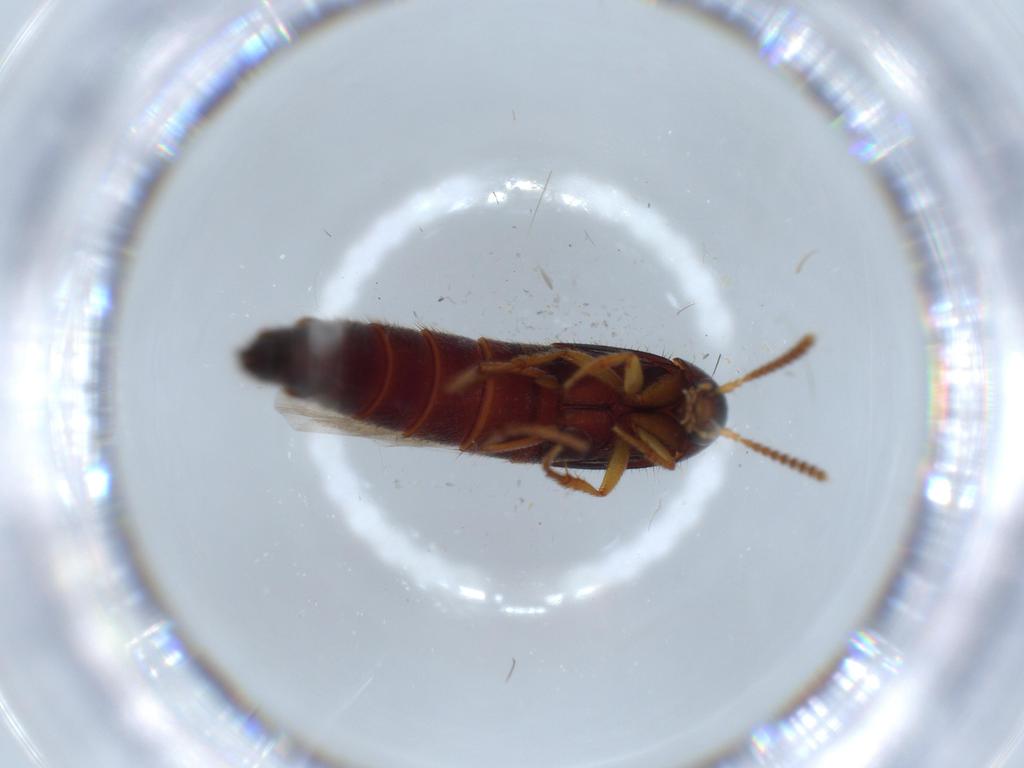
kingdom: Animalia
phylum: Arthropoda
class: Insecta
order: Coleoptera
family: Staphylinidae
